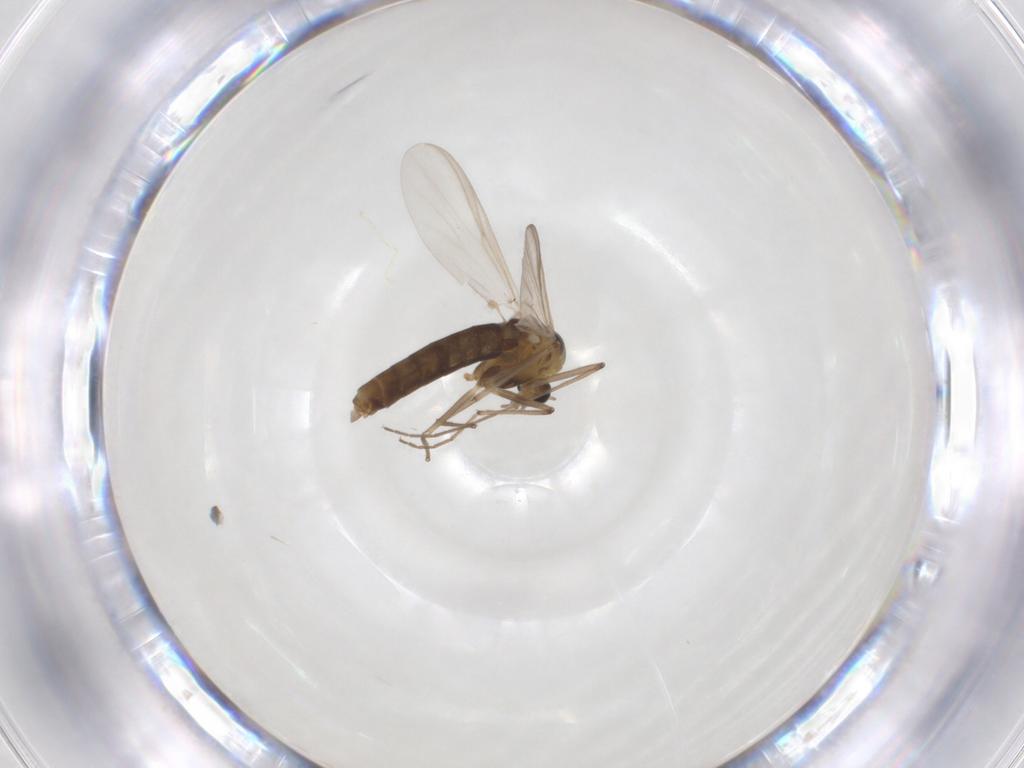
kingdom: Animalia
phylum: Arthropoda
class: Insecta
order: Diptera
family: Chironomidae
